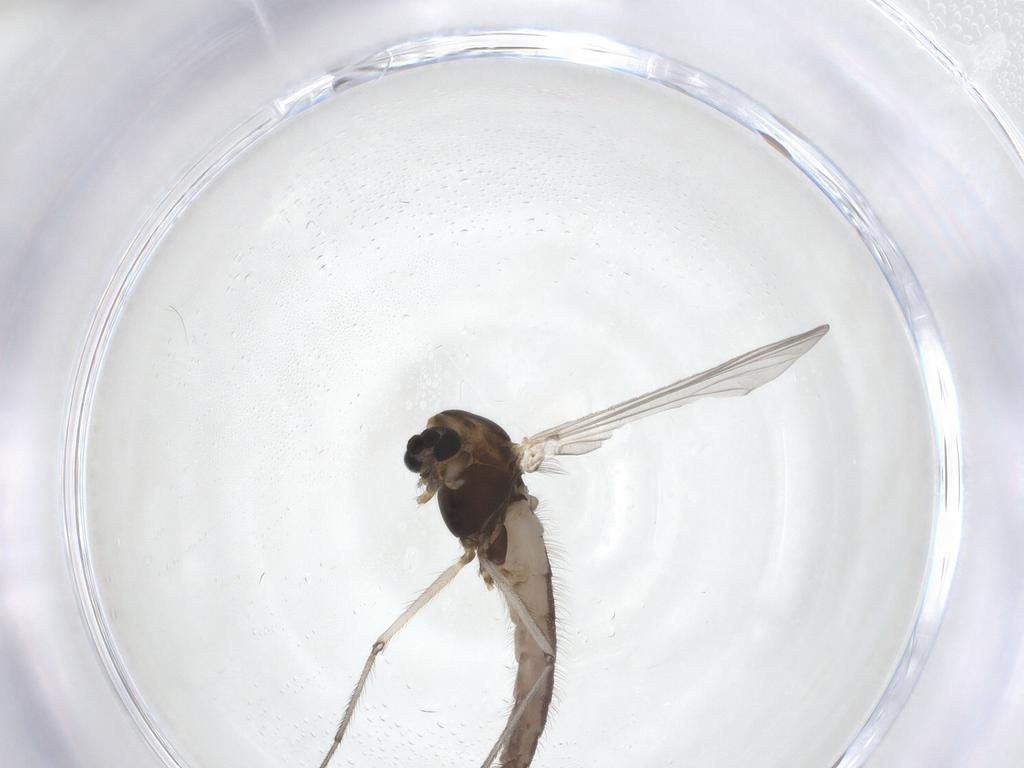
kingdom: Animalia
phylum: Arthropoda
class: Insecta
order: Diptera
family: Chironomidae
